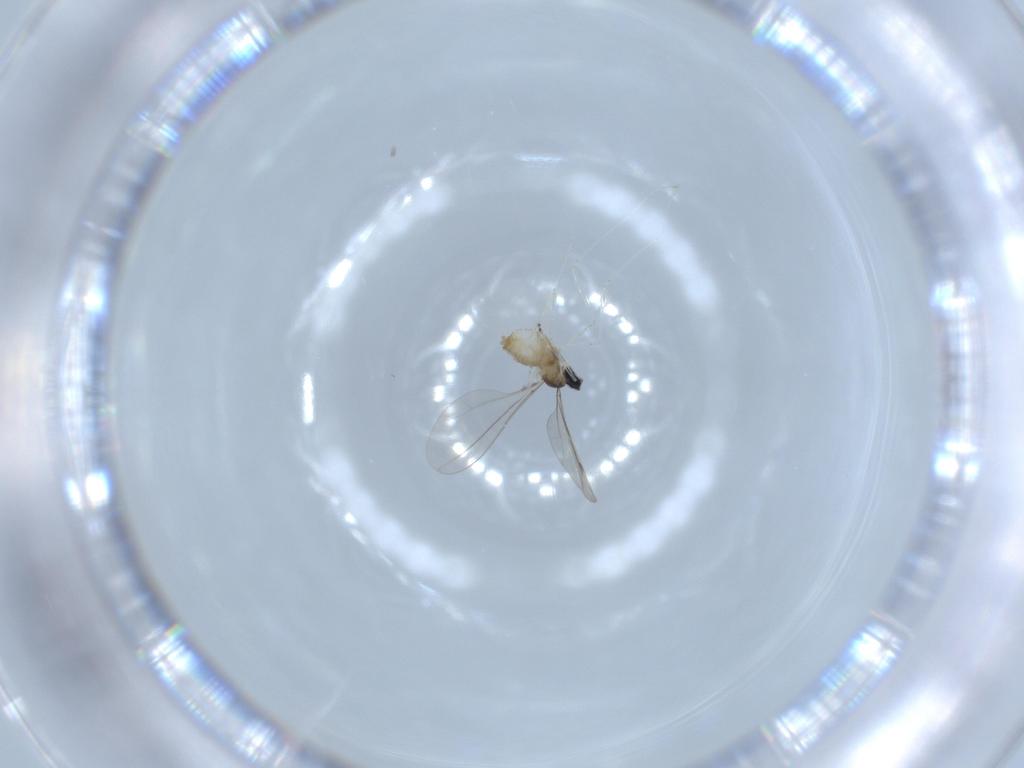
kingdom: Animalia
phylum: Arthropoda
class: Insecta
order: Diptera
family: Cecidomyiidae
